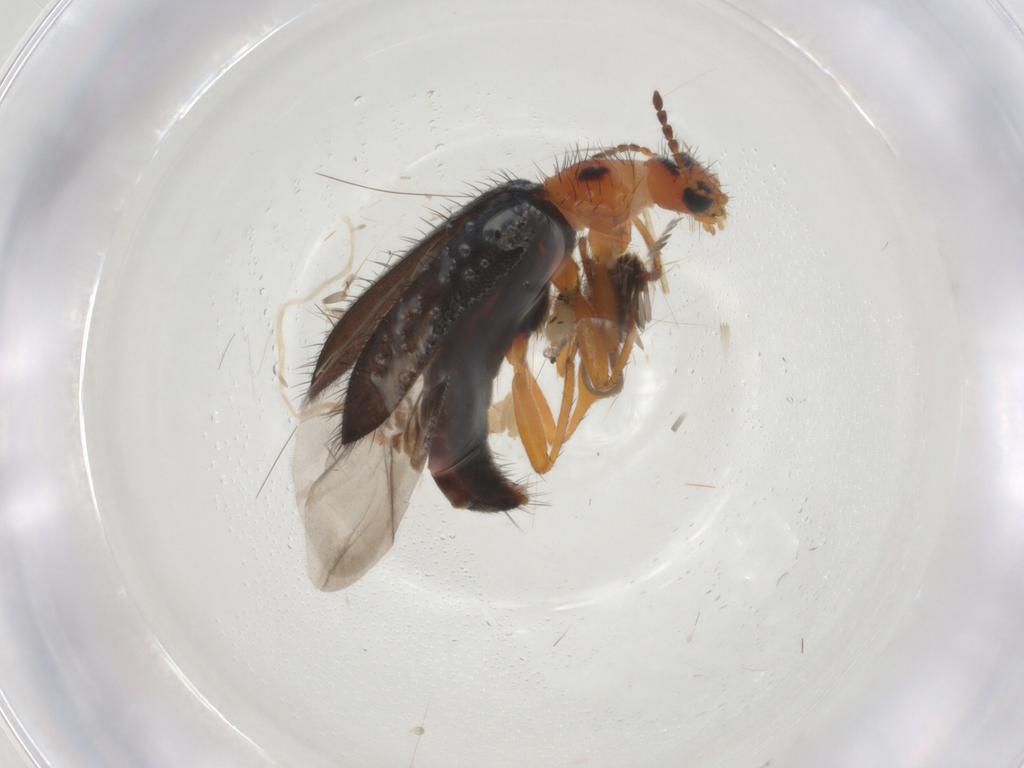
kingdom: Animalia
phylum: Arthropoda
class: Insecta
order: Coleoptera
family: Melyridae
